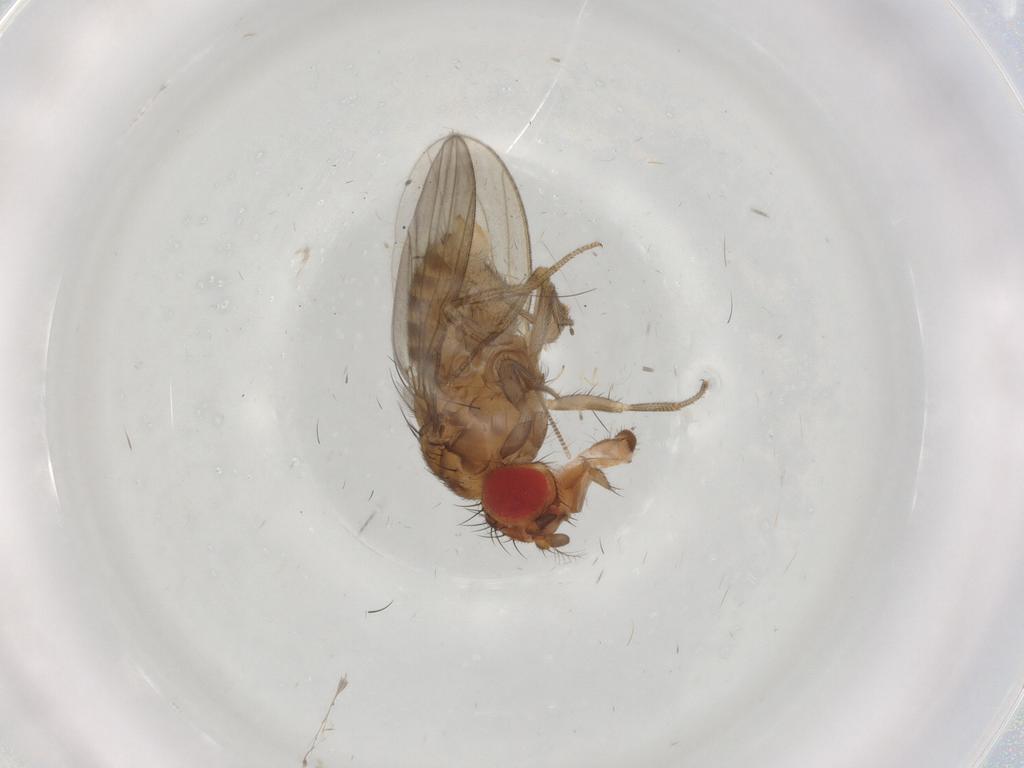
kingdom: Animalia
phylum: Arthropoda
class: Insecta
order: Diptera
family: Drosophilidae
